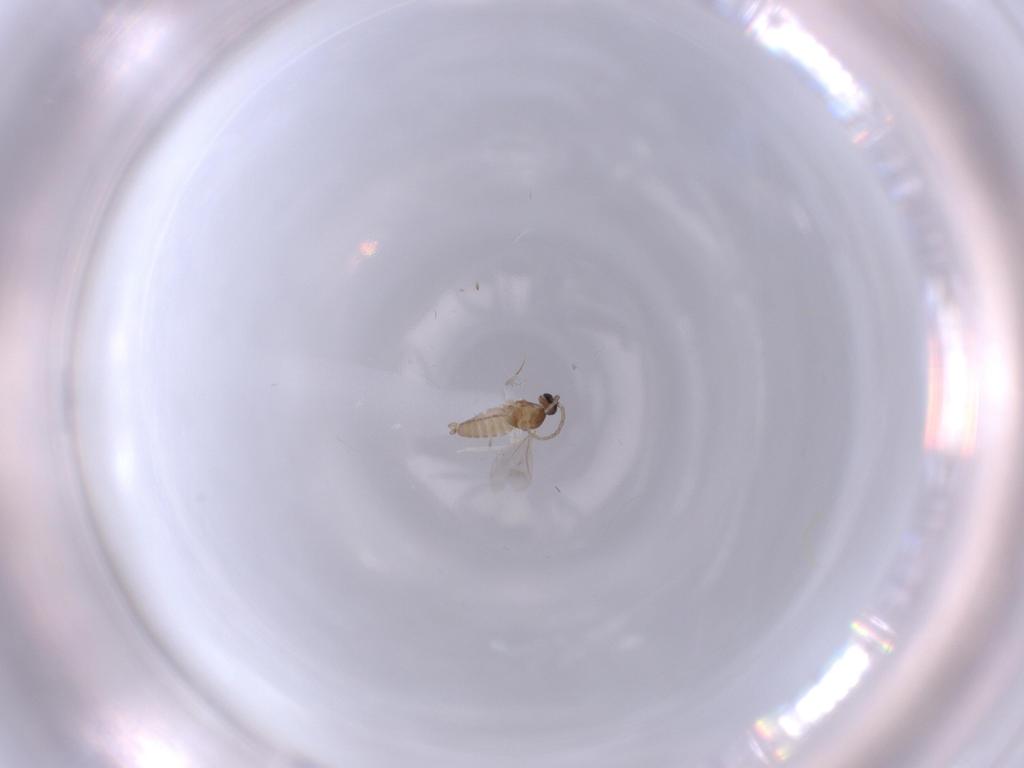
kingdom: Animalia
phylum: Arthropoda
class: Insecta
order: Diptera
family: Cecidomyiidae
